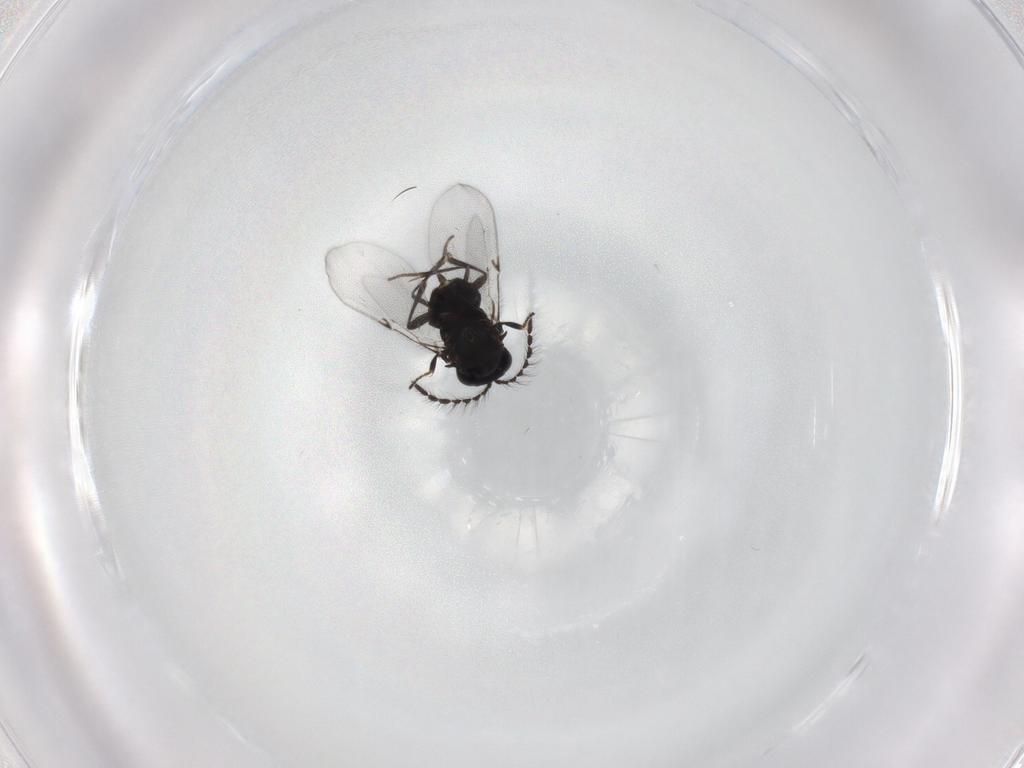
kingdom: Animalia
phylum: Arthropoda
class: Insecta
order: Hymenoptera
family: Encyrtidae
